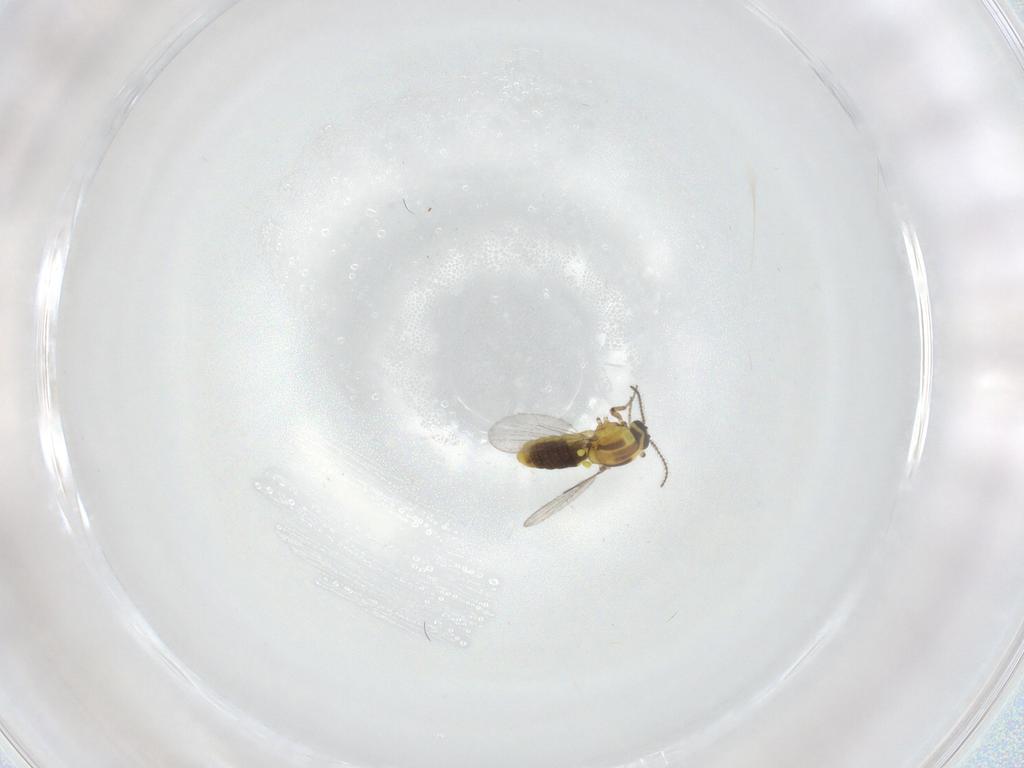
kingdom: Animalia
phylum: Arthropoda
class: Insecta
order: Diptera
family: Ceratopogonidae
